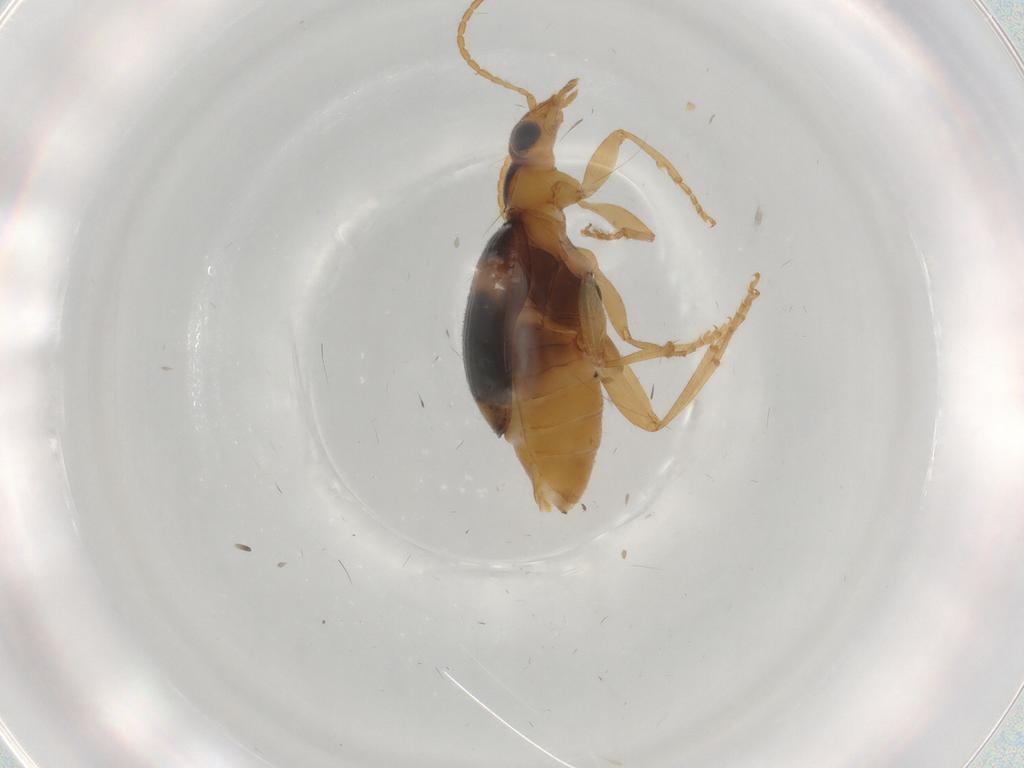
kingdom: Animalia
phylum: Arthropoda
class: Insecta
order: Coleoptera
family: Carabidae
